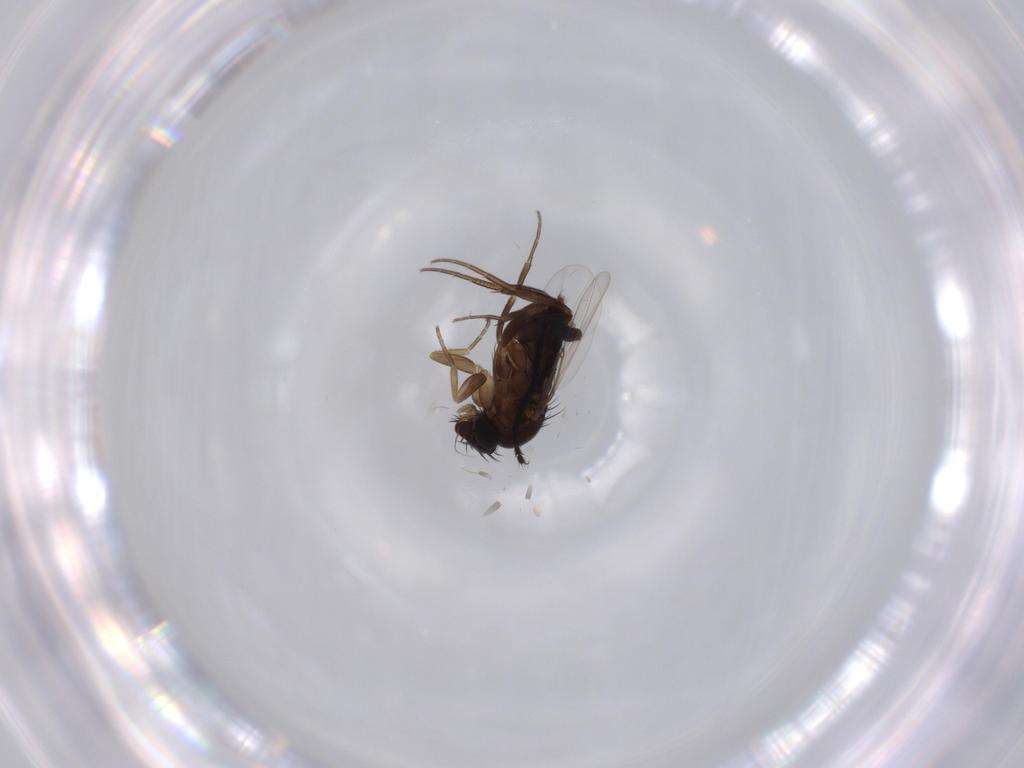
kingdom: Animalia
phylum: Arthropoda
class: Insecta
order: Diptera
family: Phoridae
